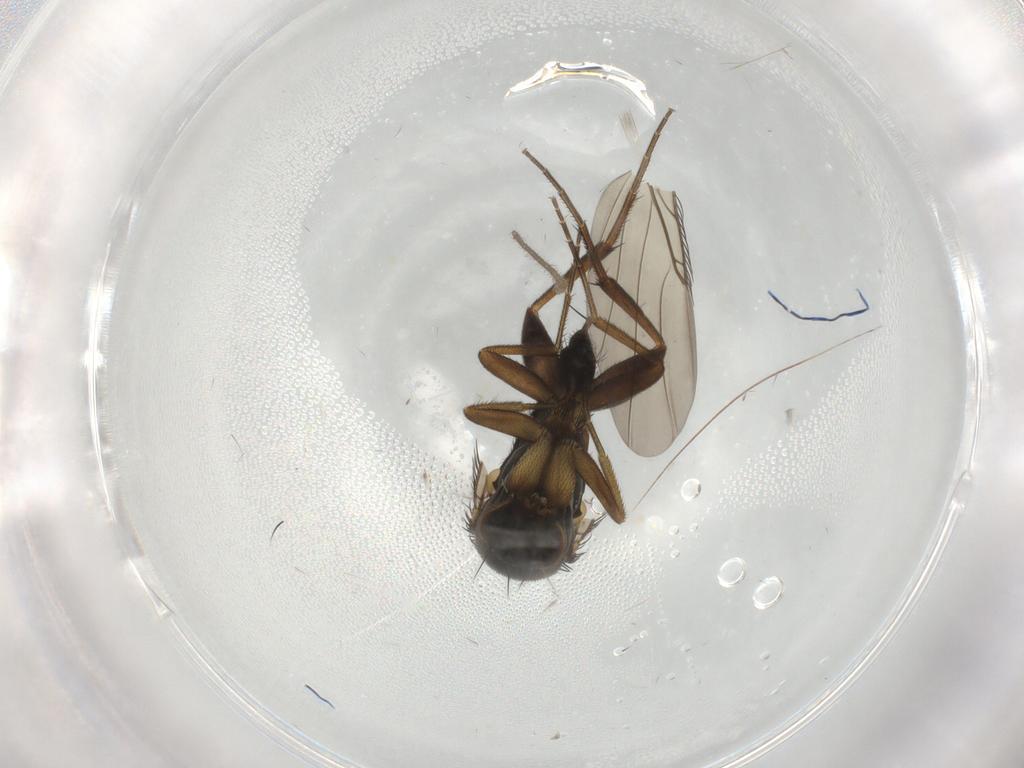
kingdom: Animalia
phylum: Arthropoda
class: Insecta
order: Diptera
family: Phoridae
